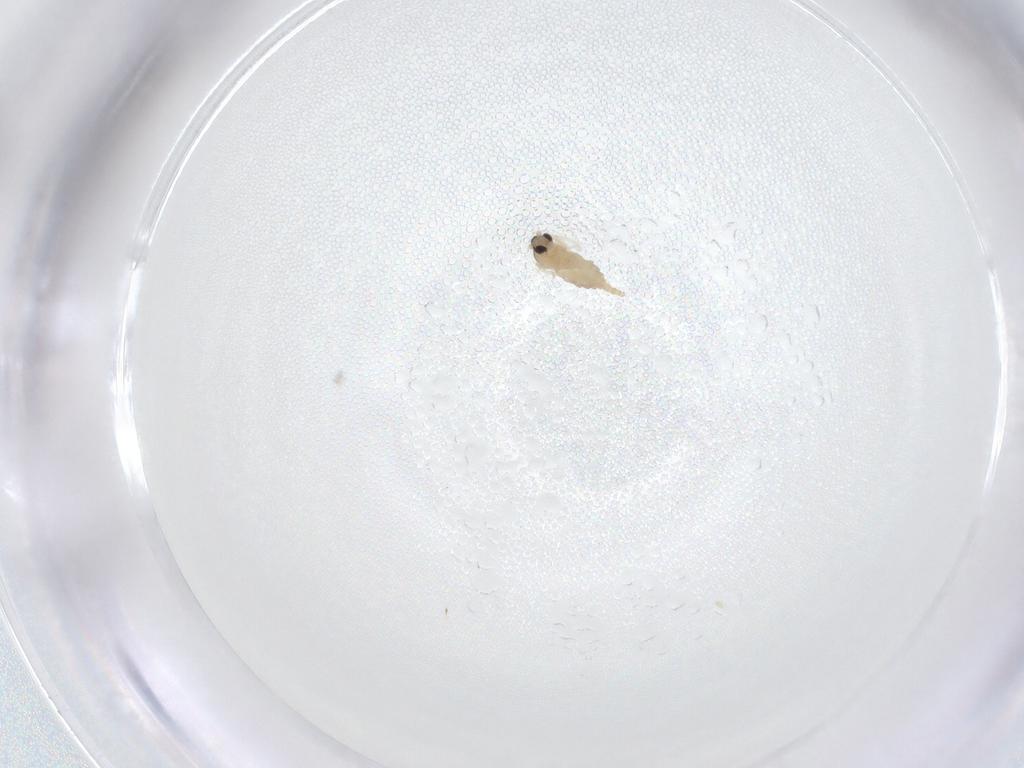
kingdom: Animalia
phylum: Arthropoda
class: Insecta
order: Diptera
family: Cecidomyiidae
